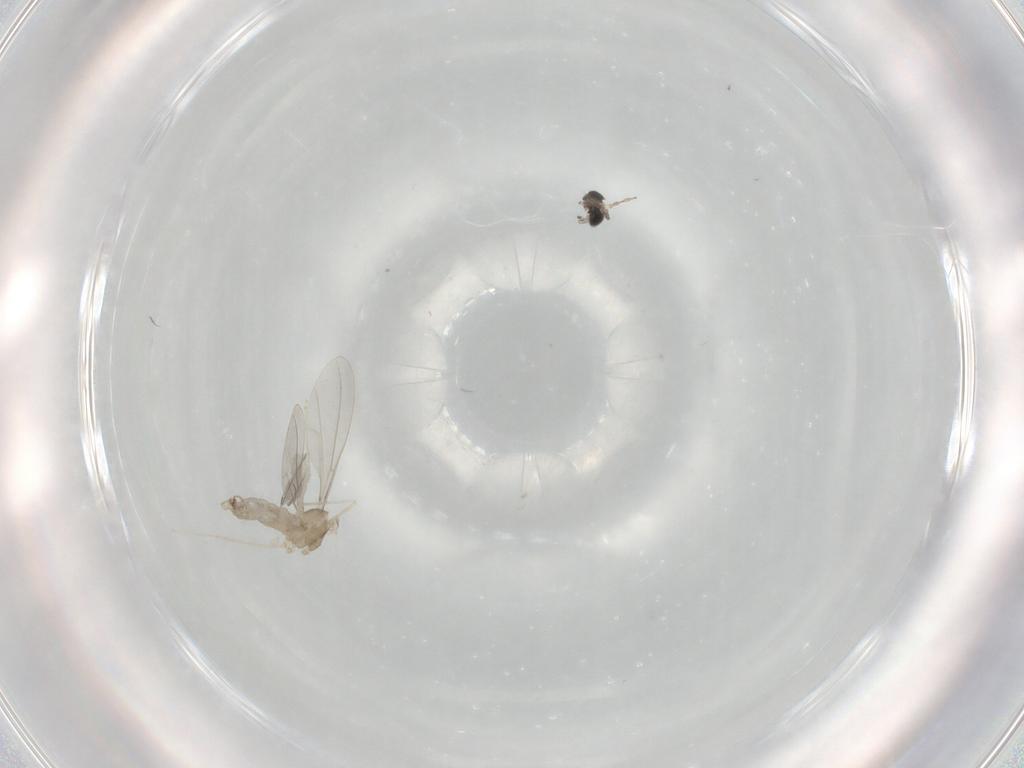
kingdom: Animalia
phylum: Arthropoda
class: Insecta
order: Diptera
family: Cecidomyiidae
